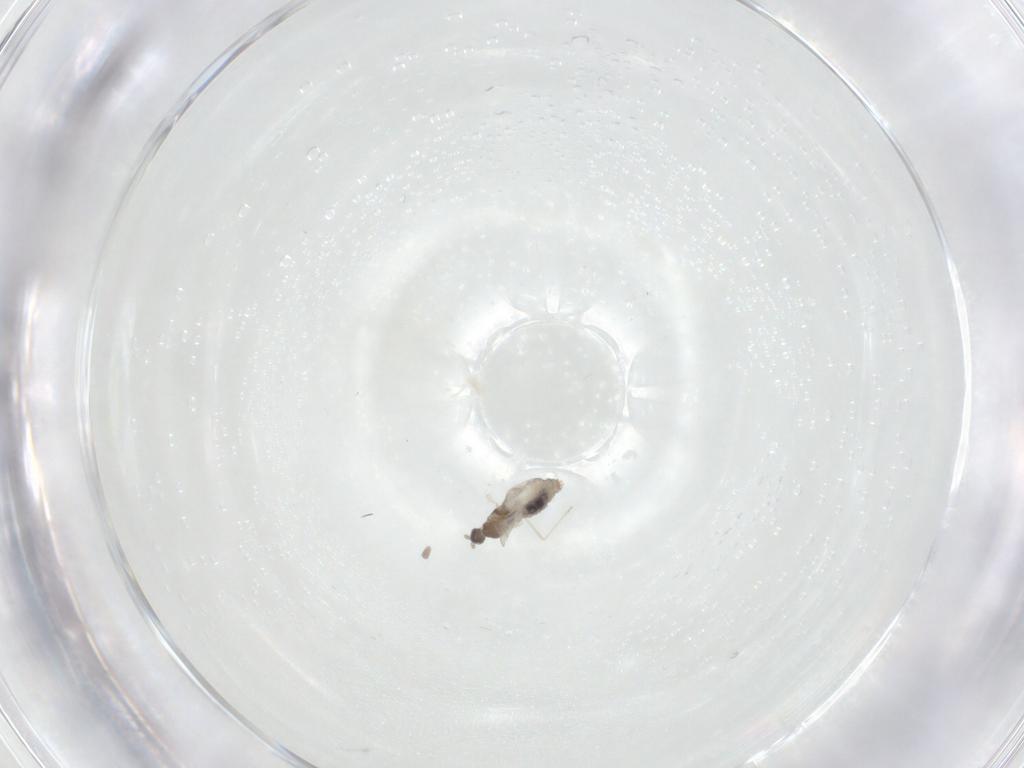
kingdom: Animalia
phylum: Arthropoda
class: Insecta
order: Diptera
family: Cecidomyiidae
